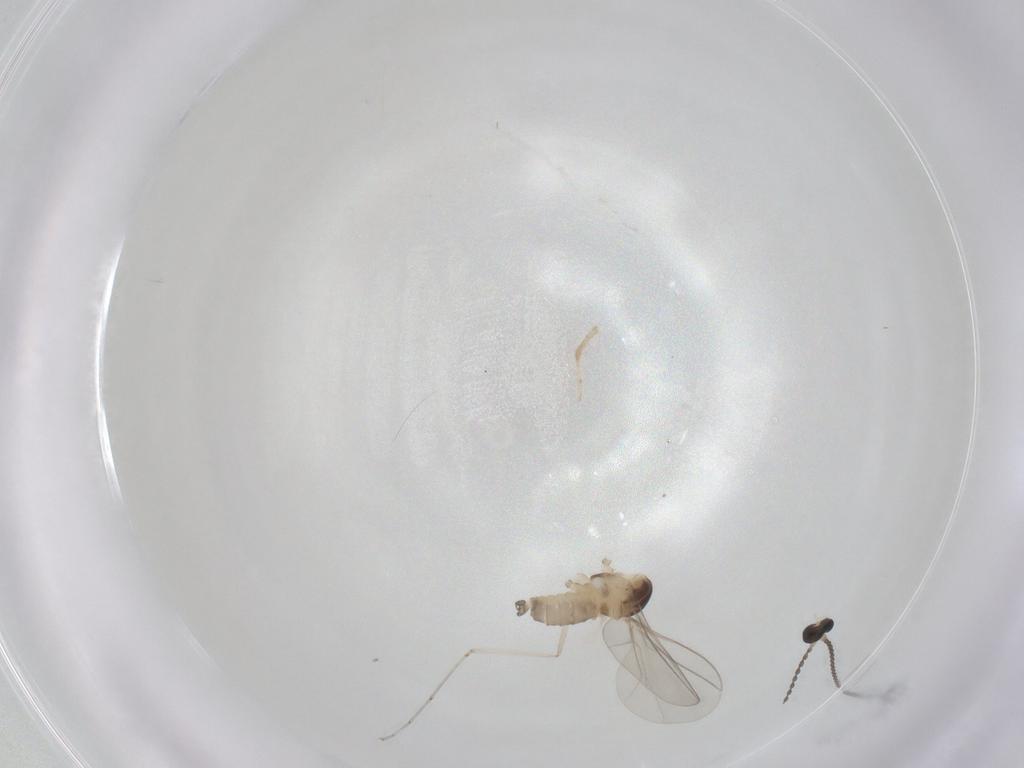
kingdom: Animalia
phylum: Arthropoda
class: Insecta
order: Diptera
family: Cecidomyiidae
